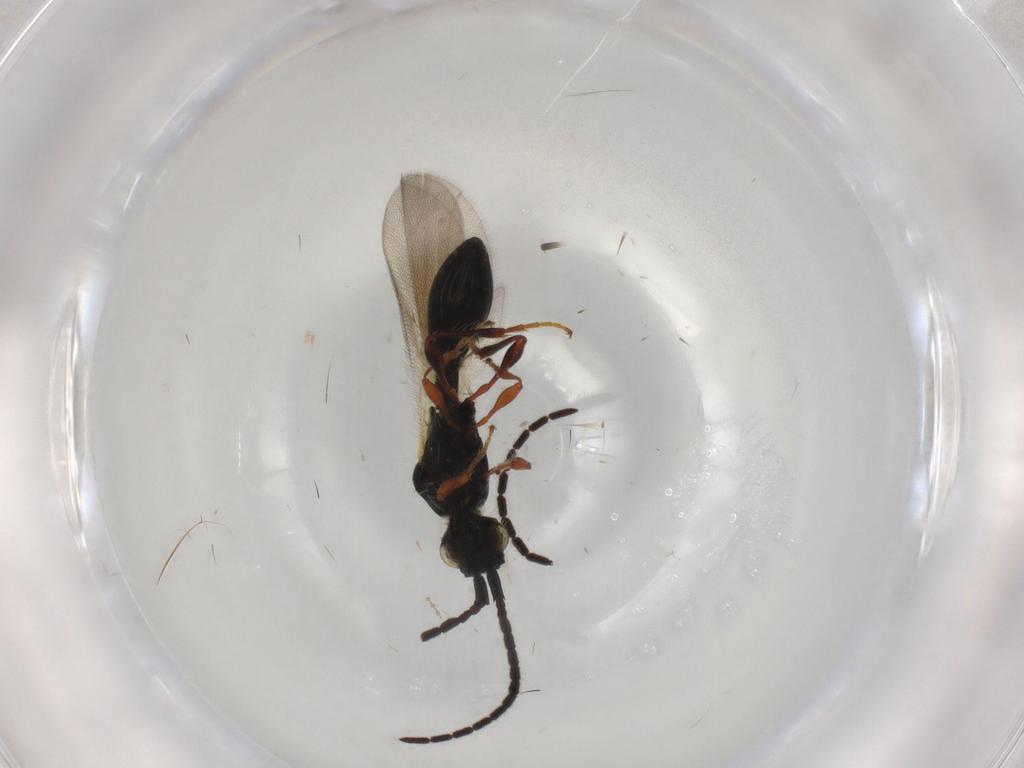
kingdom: Animalia
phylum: Arthropoda
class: Insecta
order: Hymenoptera
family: Diapriidae
